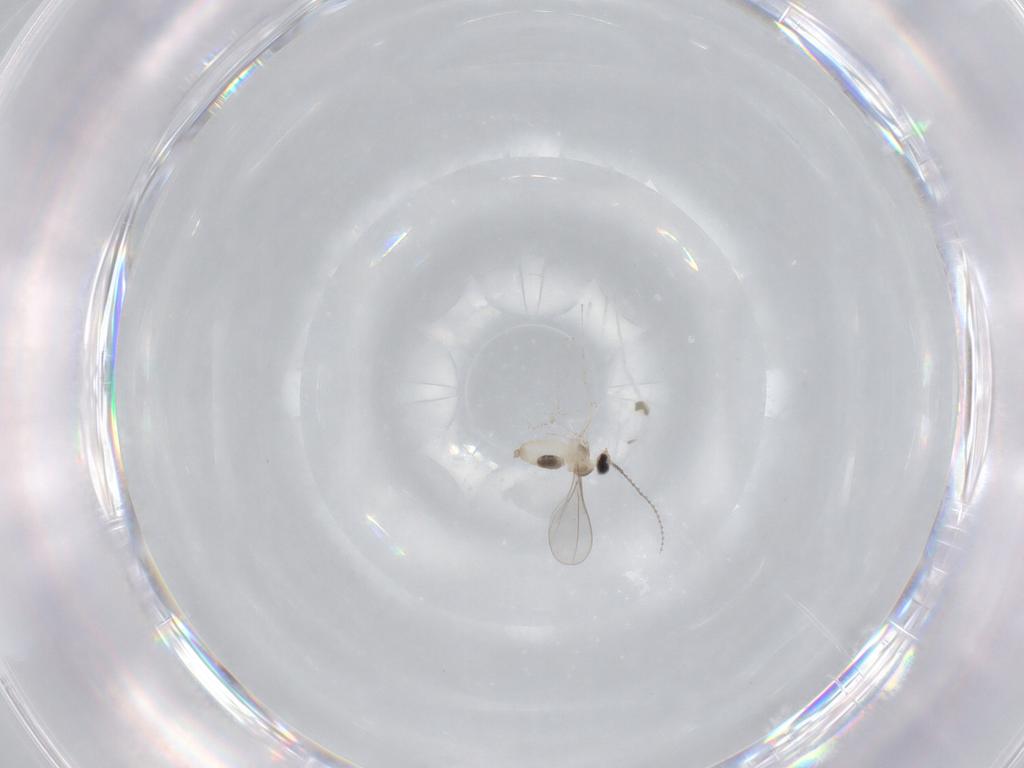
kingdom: Animalia
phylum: Arthropoda
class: Insecta
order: Diptera
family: Cecidomyiidae
